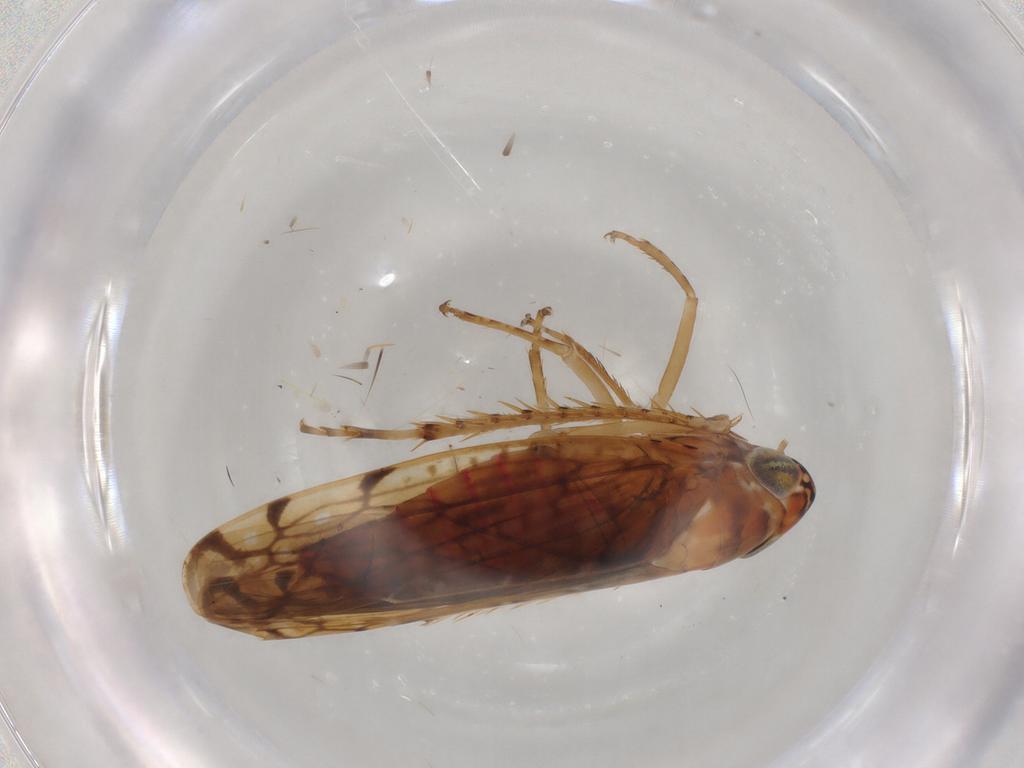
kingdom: Animalia
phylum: Arthropoda
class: Insecta
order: Hemiptera
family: Cicadellidae
